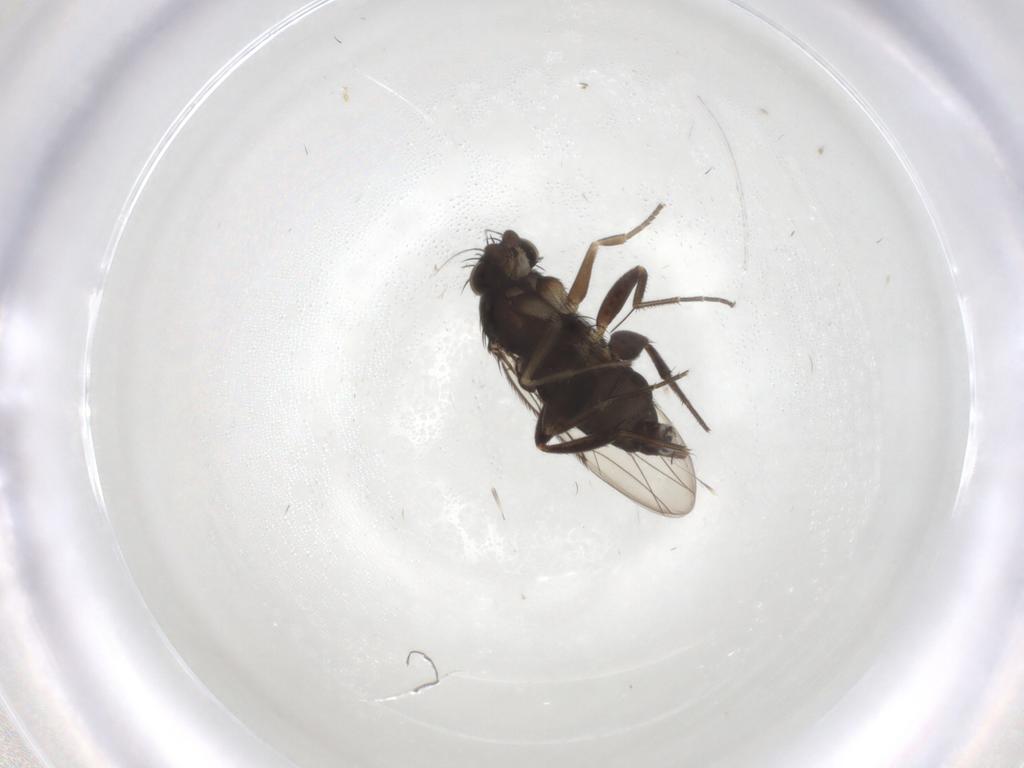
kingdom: Animalia
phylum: Arthropoda
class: Insecta
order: Diptera
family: Phoridae
